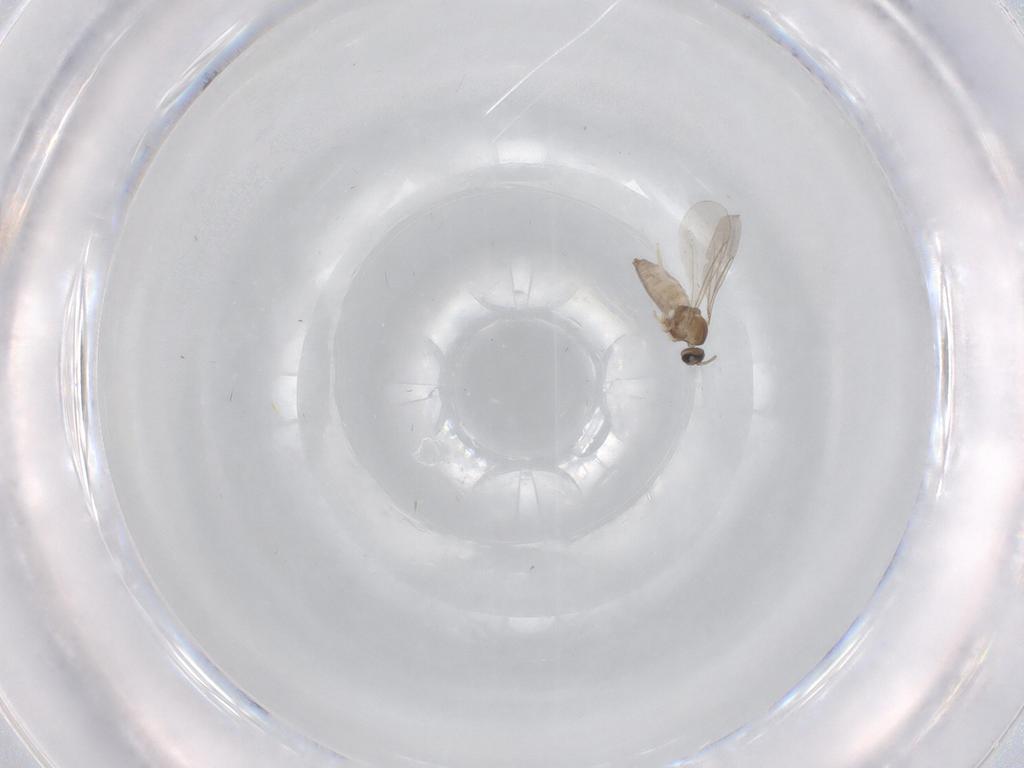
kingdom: Animalia
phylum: Arthropoda
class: Insecta
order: Diptera
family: Cecidomyiidae
